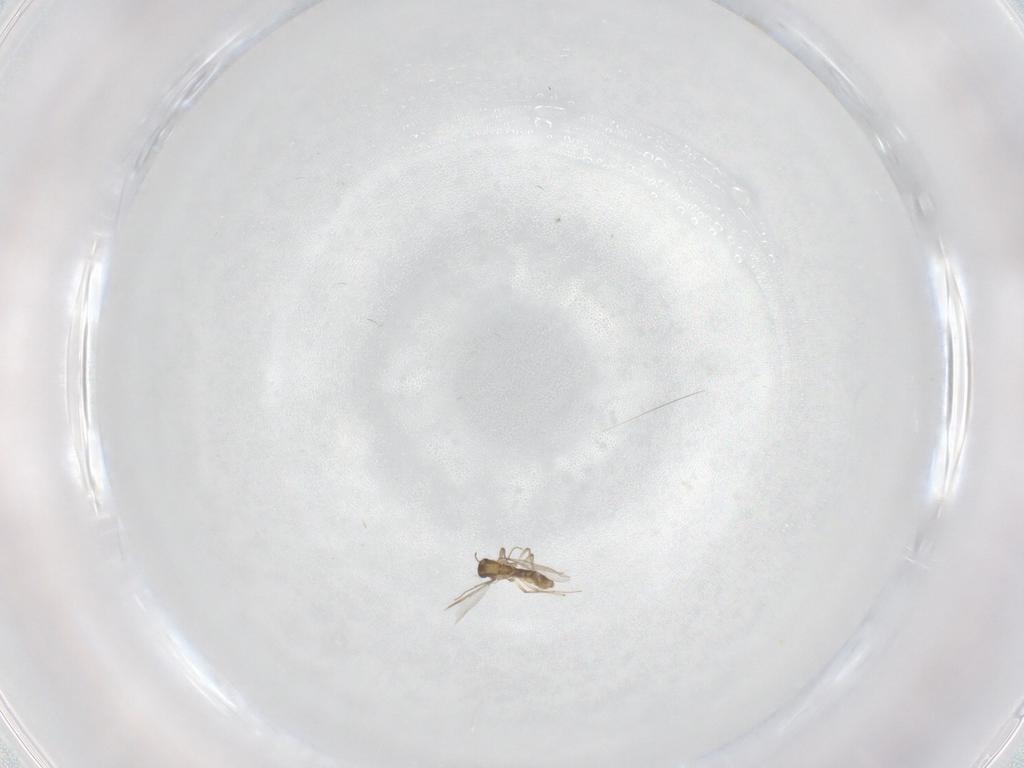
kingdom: Animalia
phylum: Arthropoda
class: Insecta
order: Diptera
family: Chironomidae
